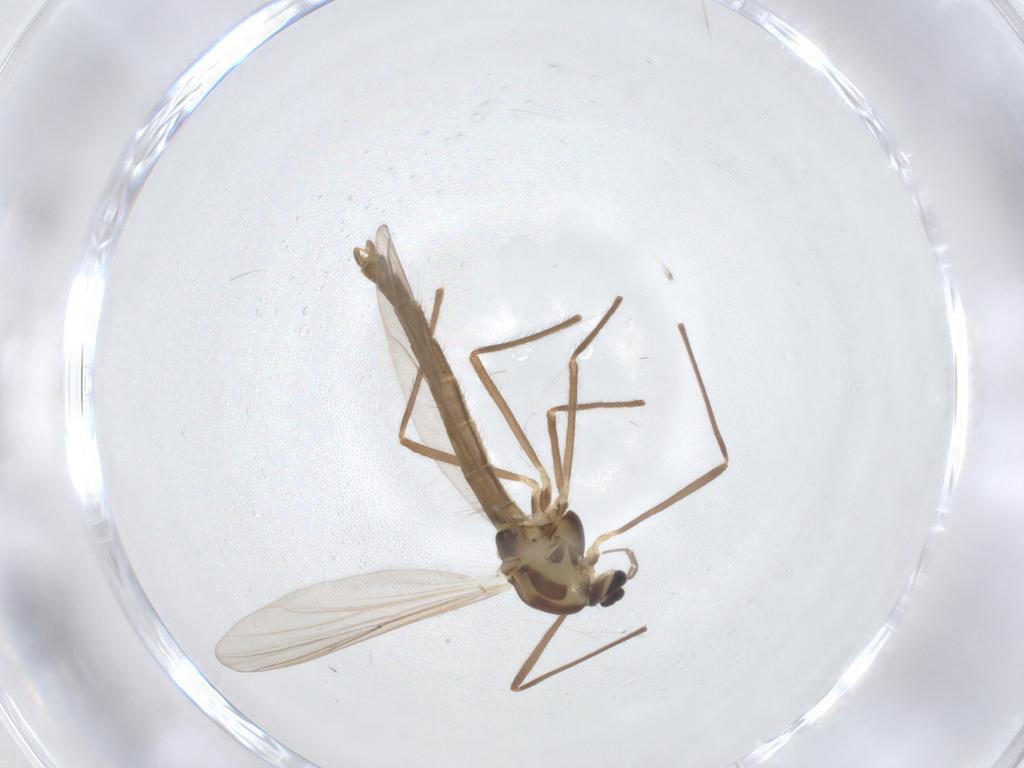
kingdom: Animalia
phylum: Arthropoda
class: Insecta
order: Diptera
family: Chironomidae
